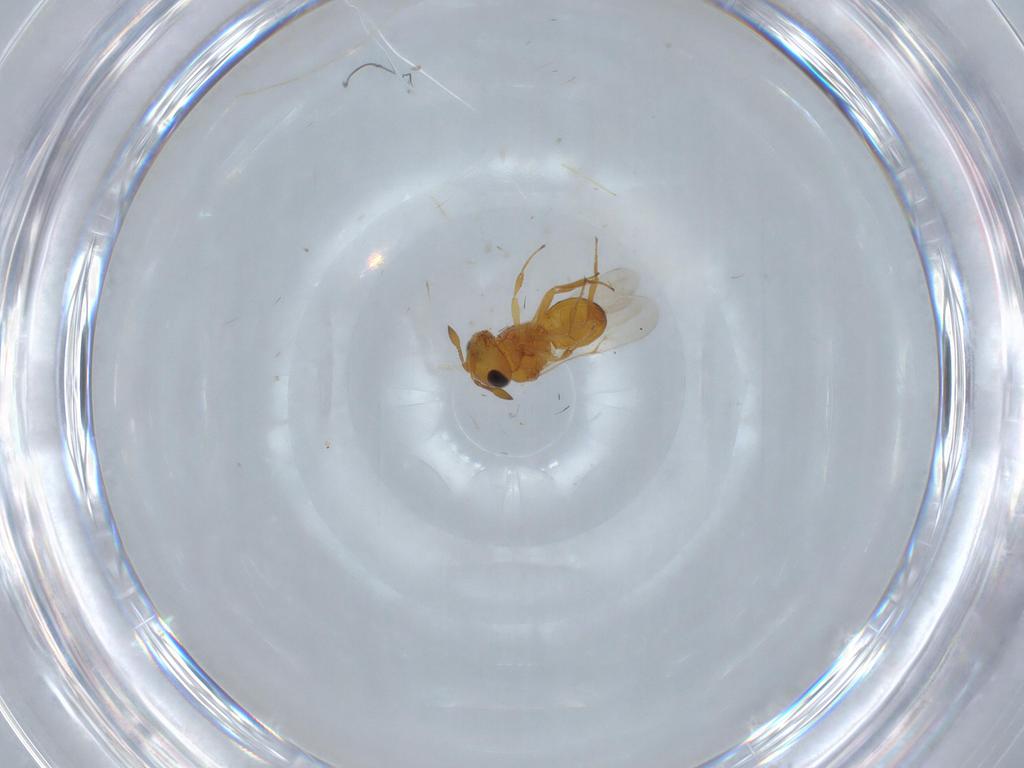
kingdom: Animalia
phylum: Arthropoda
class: Insecta
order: Hymenoptera
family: Scelionidae
